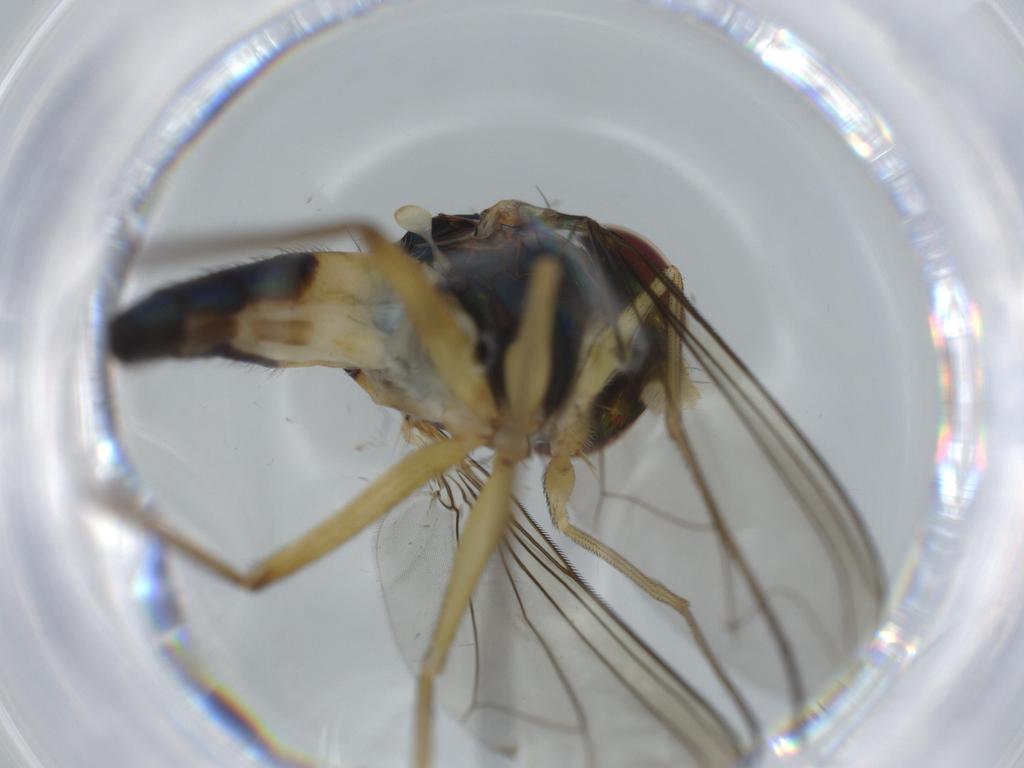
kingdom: Animalia
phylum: Arthropoda
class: Insecta
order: Diptera
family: Dolichopodidae
